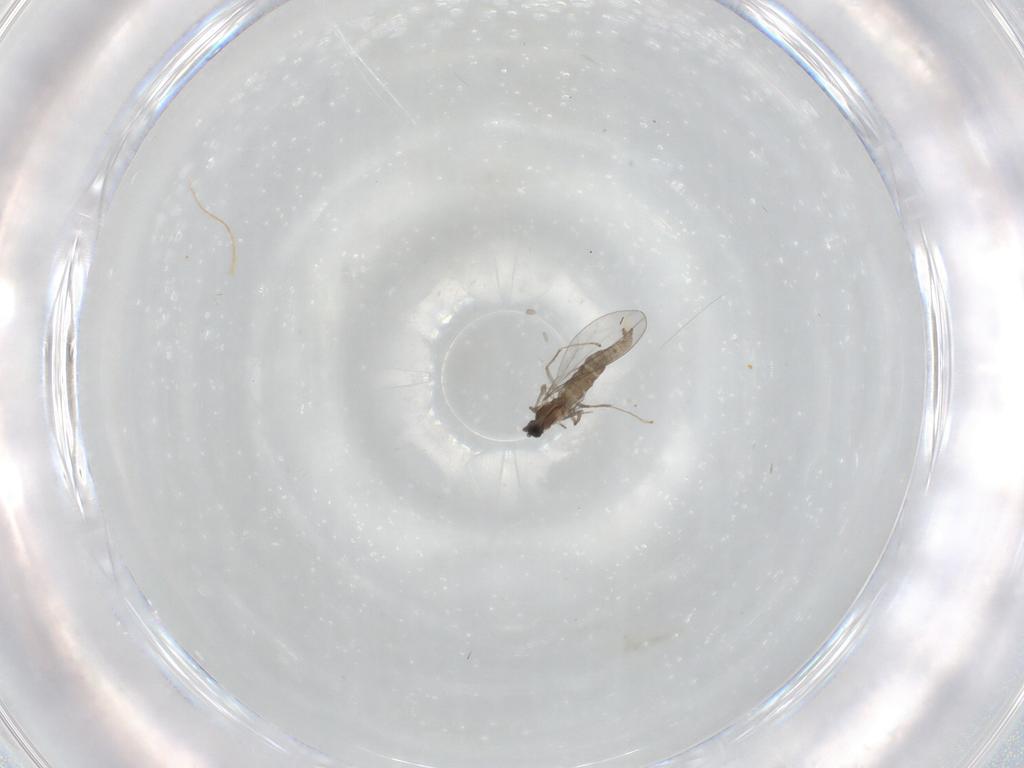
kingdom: Animalia
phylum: Arthropoda
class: Insecta
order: Diptera
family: Cecidomyiidae
